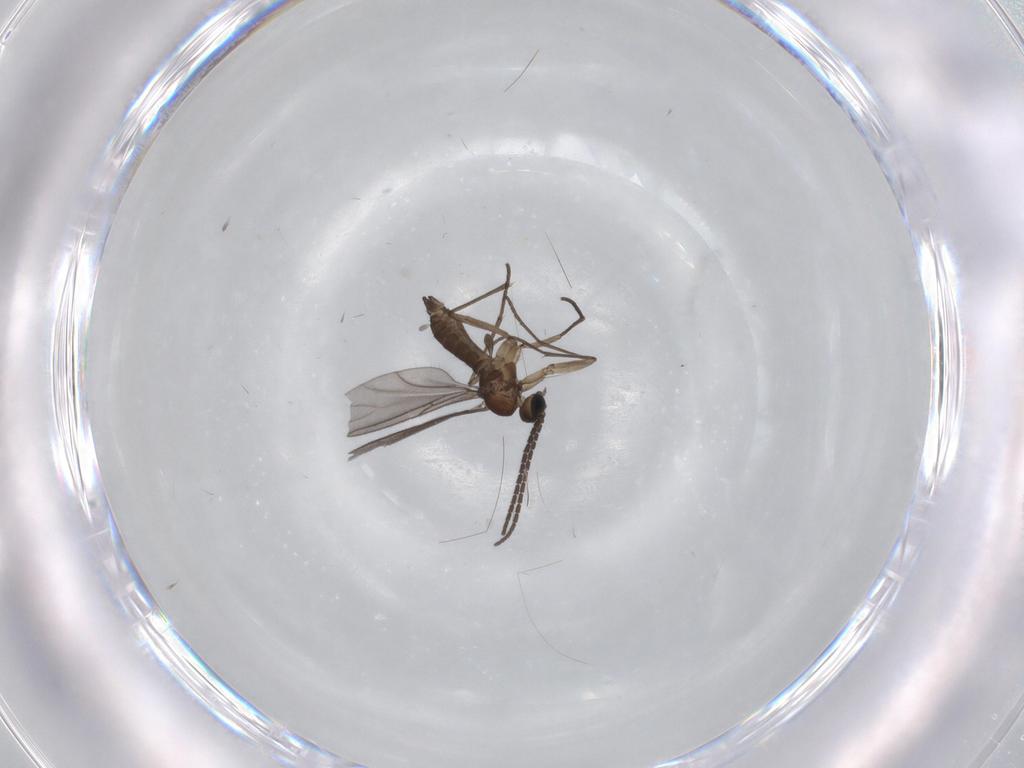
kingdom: Animalia
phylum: Arthropoda
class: Insecta
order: Diptera
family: Sciaridae
